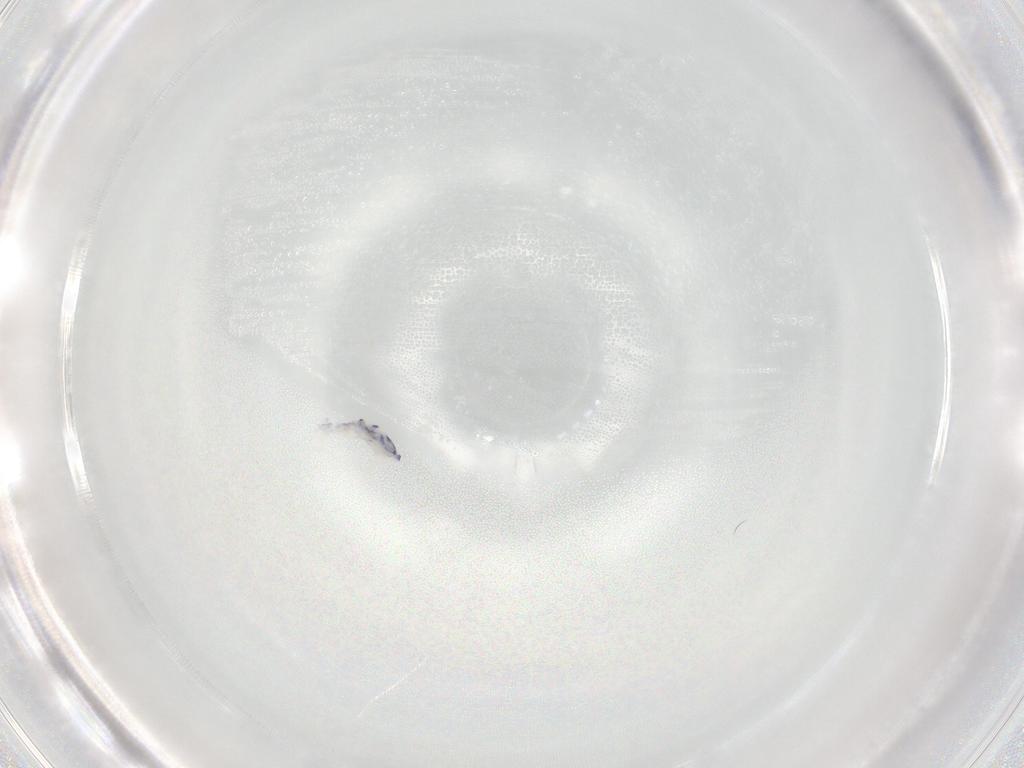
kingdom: Animalia
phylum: Arthropoda
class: Collembola
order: Entomobryomorpha
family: Entomobryidae
